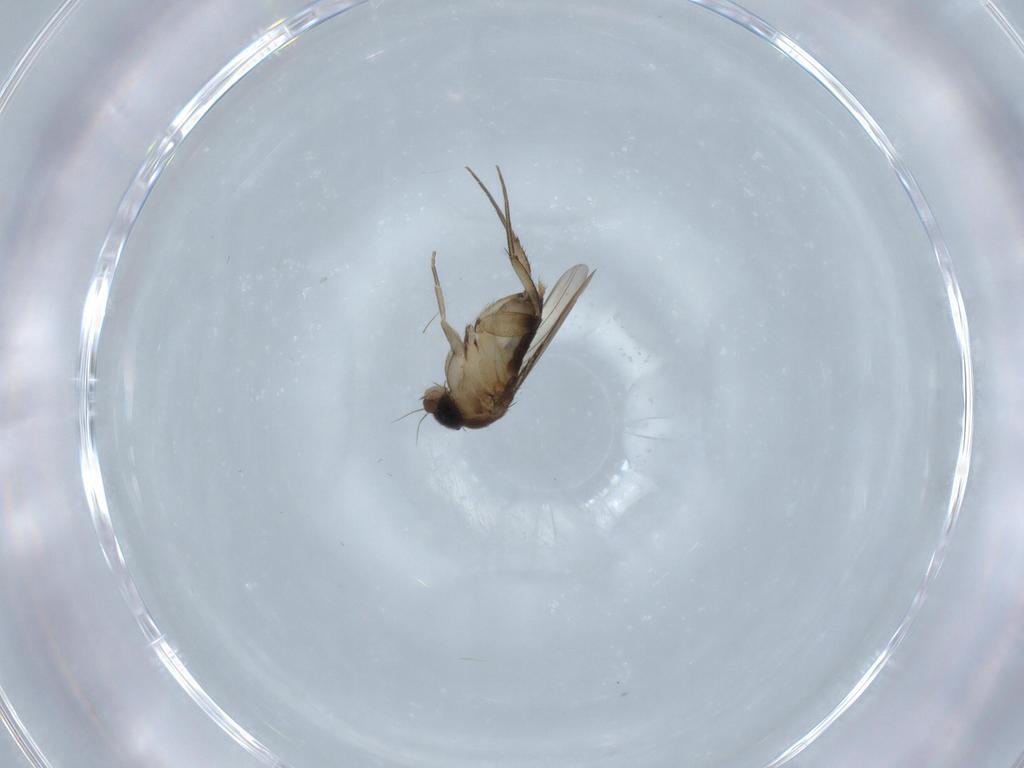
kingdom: Animalia
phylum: Arthropoda
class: Insecta
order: Diptera
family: Phoridae
